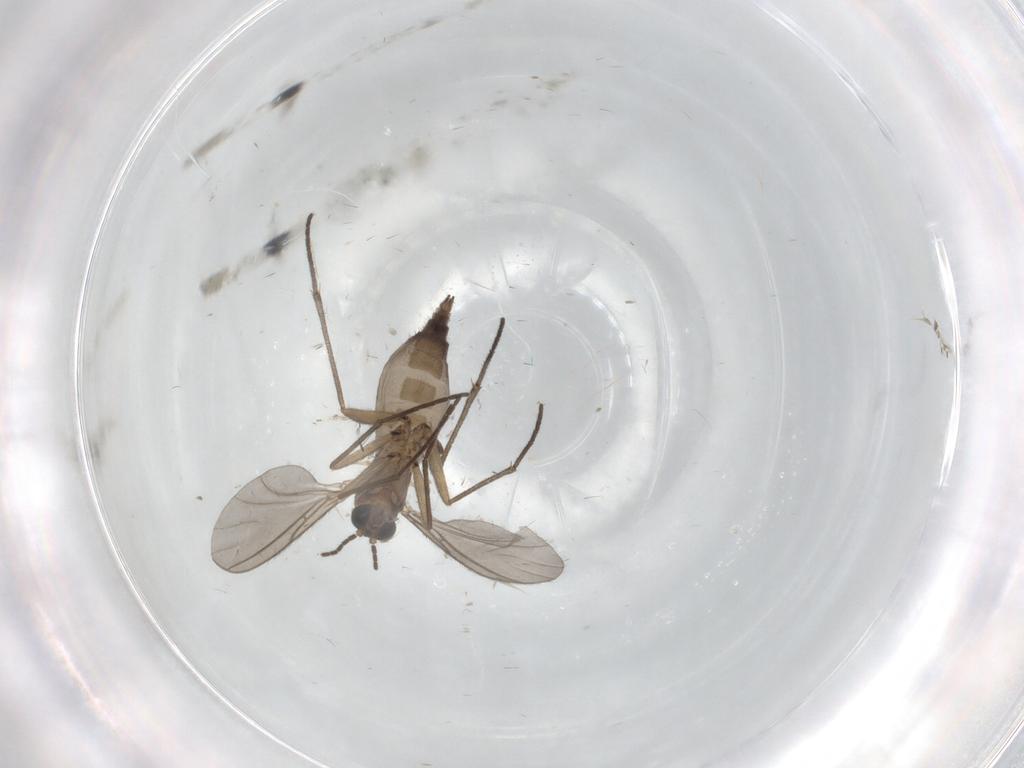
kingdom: Animalia
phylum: Arthropoda
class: Insecta
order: Diptera
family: Sciaridae
